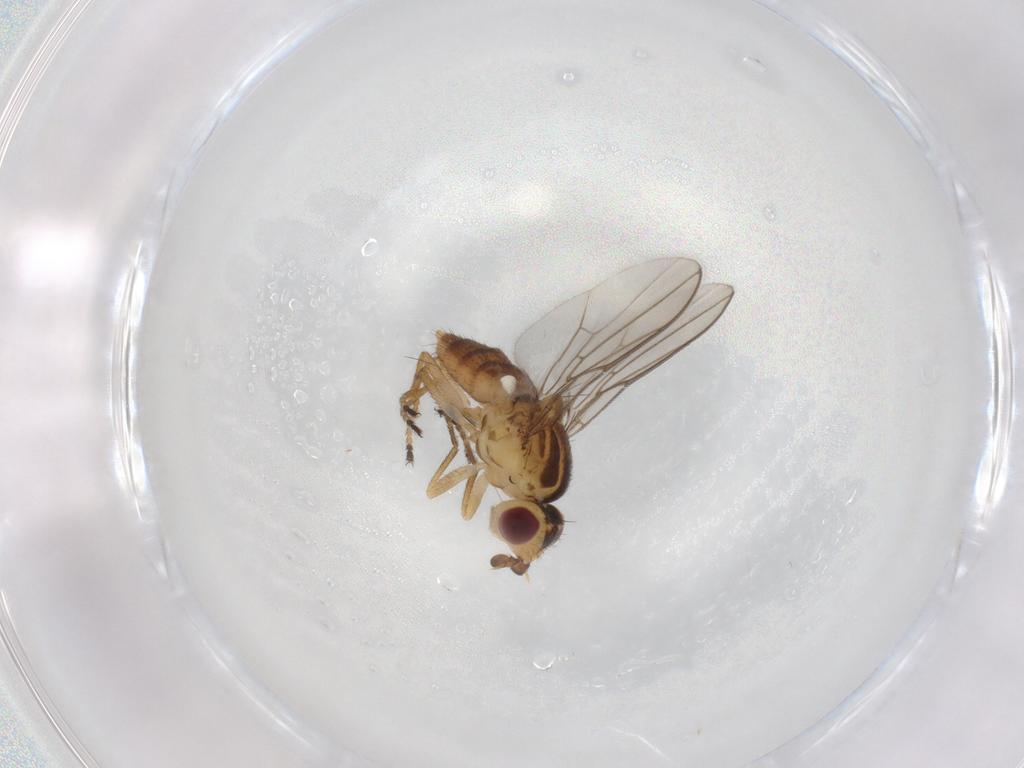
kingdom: Animalia
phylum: Arthropoda
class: Insecta
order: Diptera
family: Chloropidae
